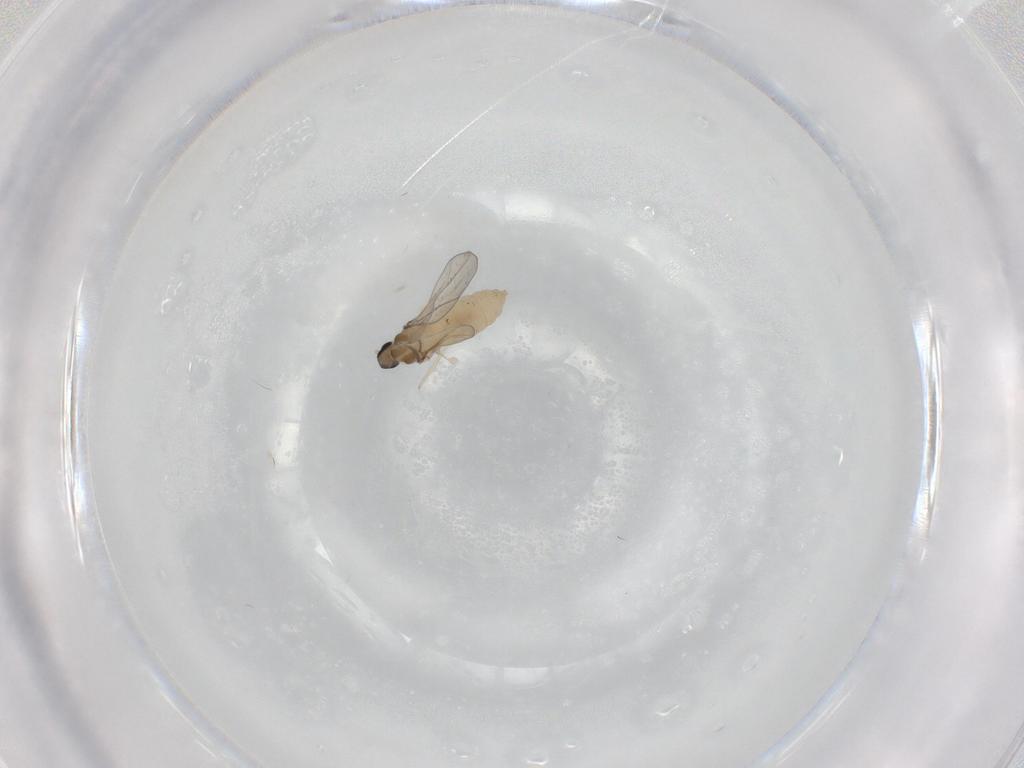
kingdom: Animalia
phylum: Arthropoda
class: Insecta
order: Diptera
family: Cecidomyiidae
